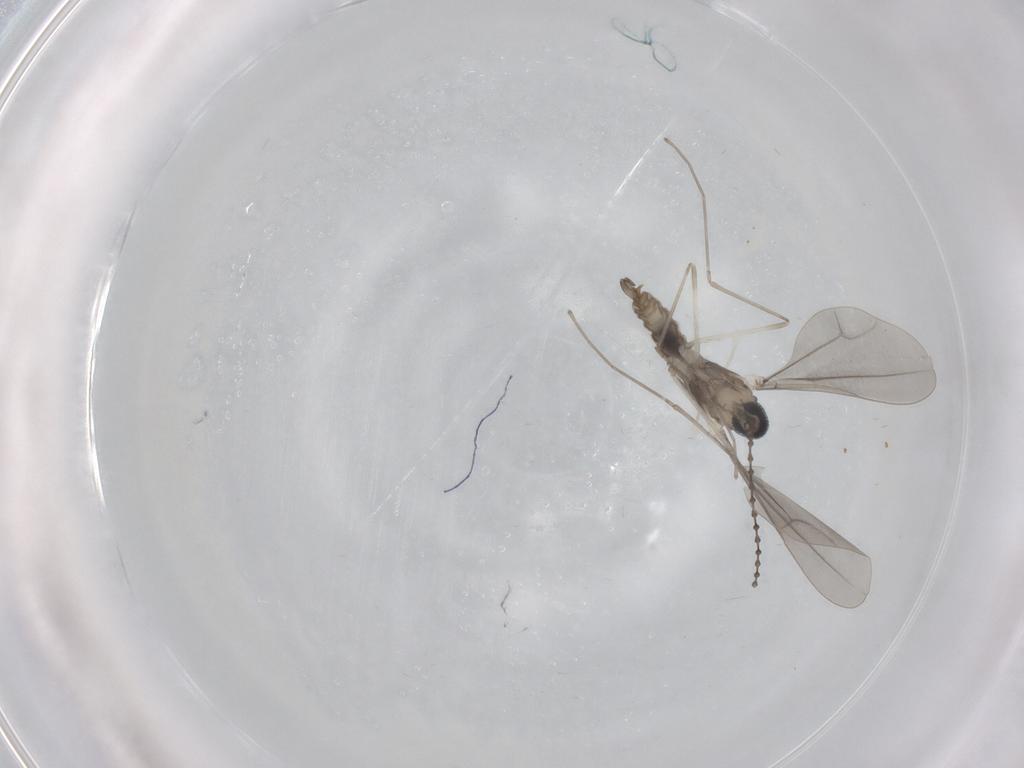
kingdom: Animalia
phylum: Arthropoda
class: Insecta
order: Diptera
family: Cecidomyiidae
